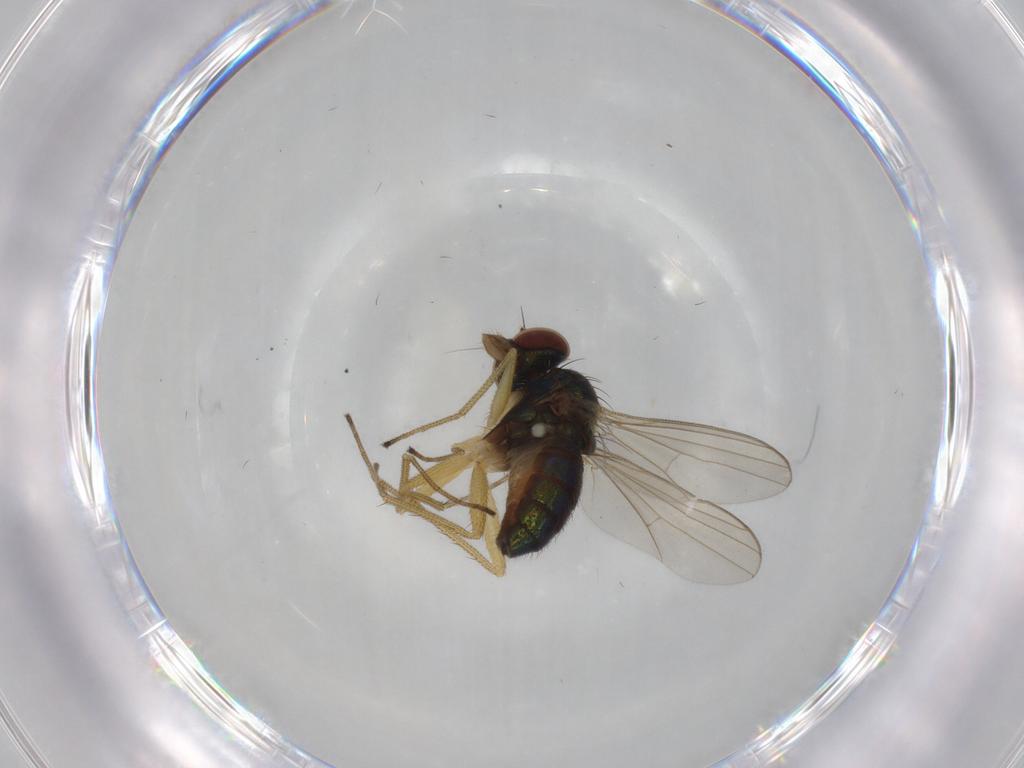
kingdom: Animalia
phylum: Arthropoda
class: Insecta
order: Diptera
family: Dolichopodidae
